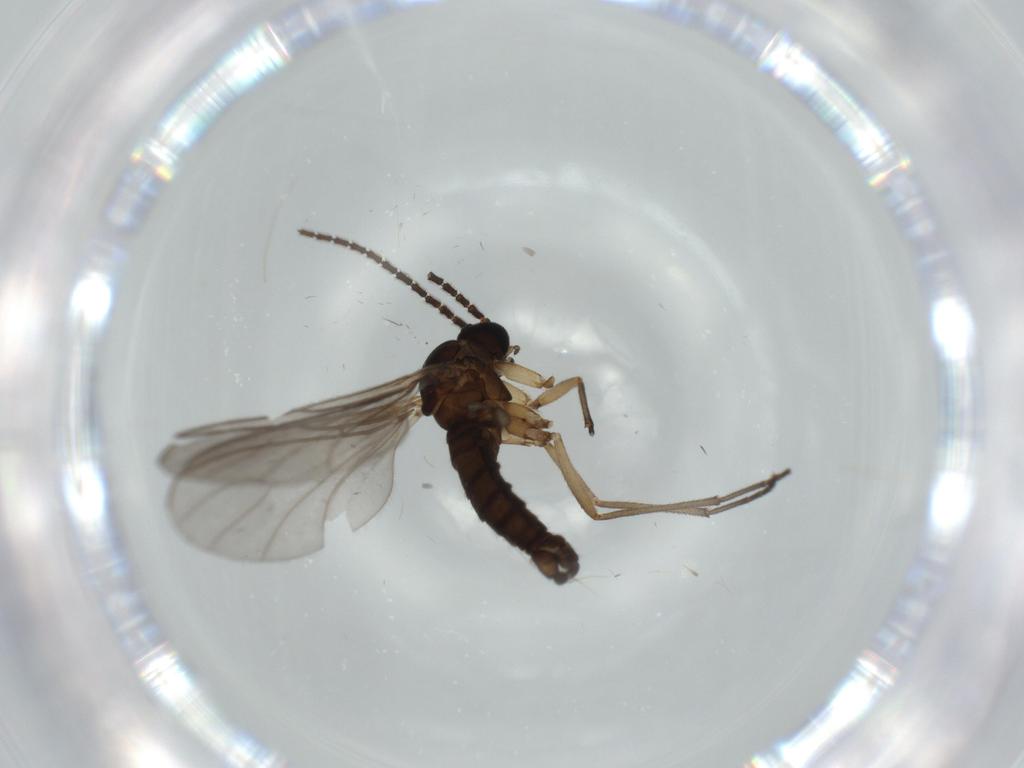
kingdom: Animalia
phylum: Arthropoda
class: Insecta
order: Diptera
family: Sciaridae
